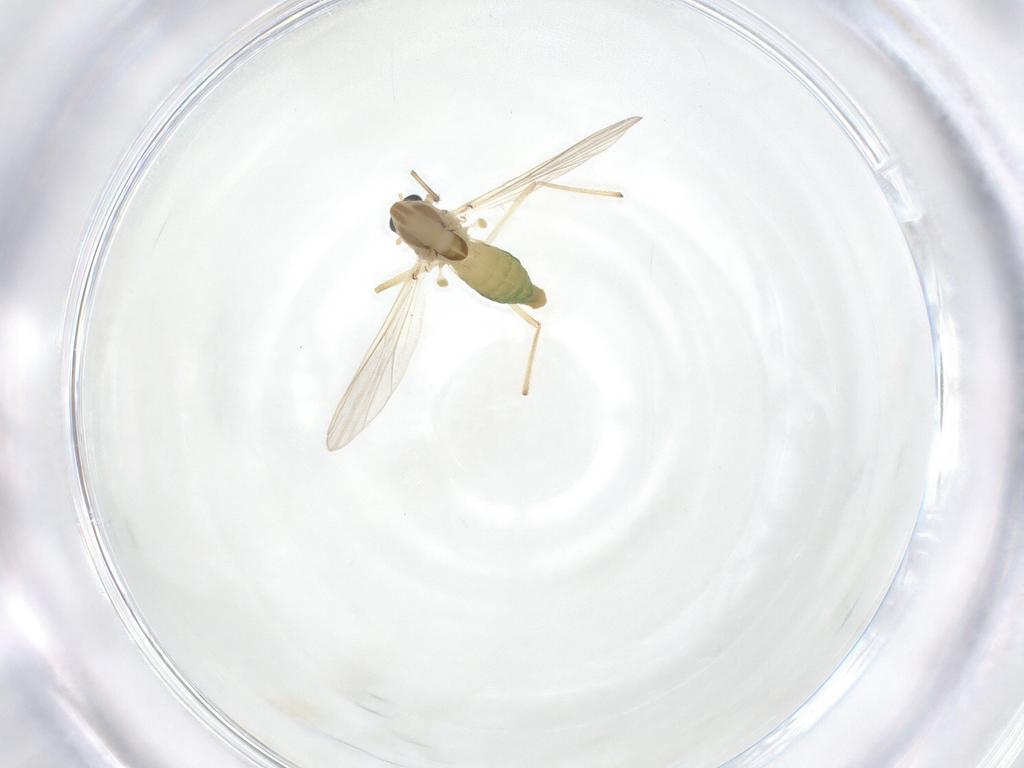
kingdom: Animalia
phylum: Arthropoda
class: Insecta
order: Diptera
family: Chironomidae
